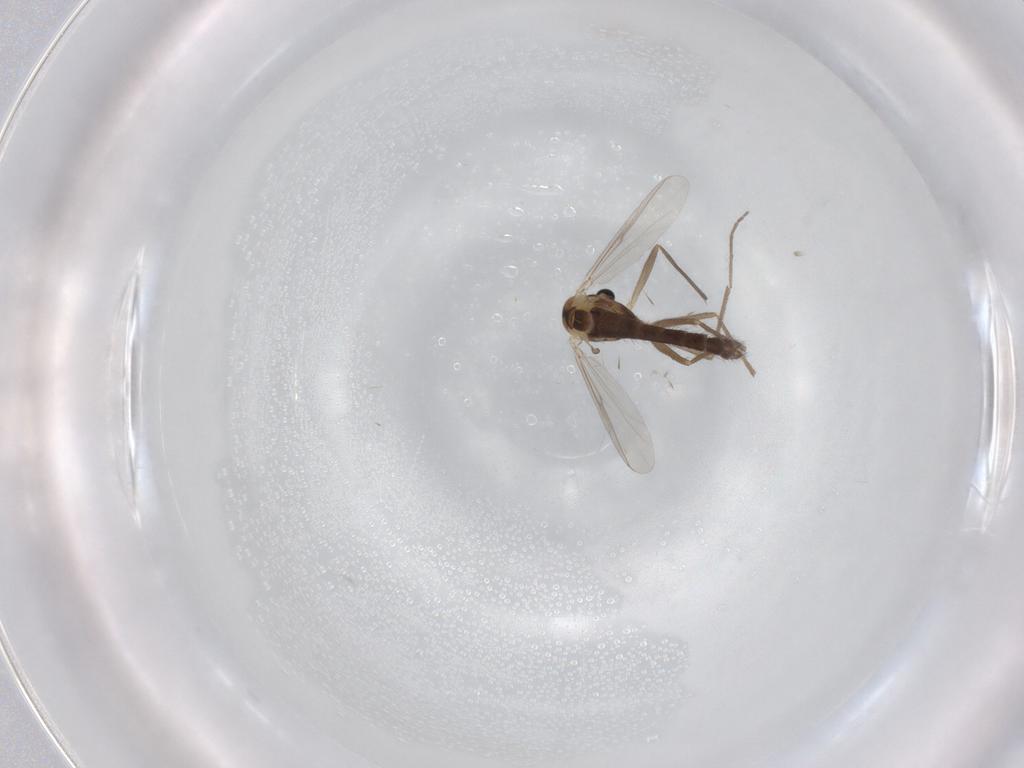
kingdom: Animalia
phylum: Arthropoda
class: Insecta
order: Diptera
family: Chironomidae
